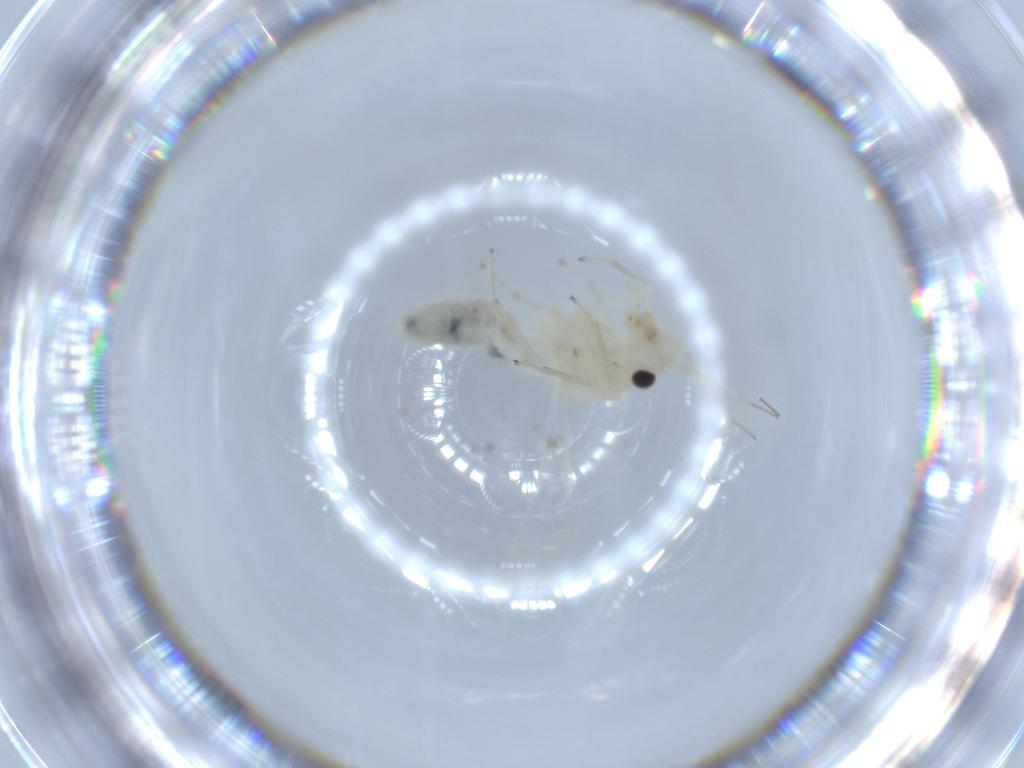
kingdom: Animalia
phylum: Arthropoda
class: Insecta
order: Psocodea
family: Caeciliusidae
